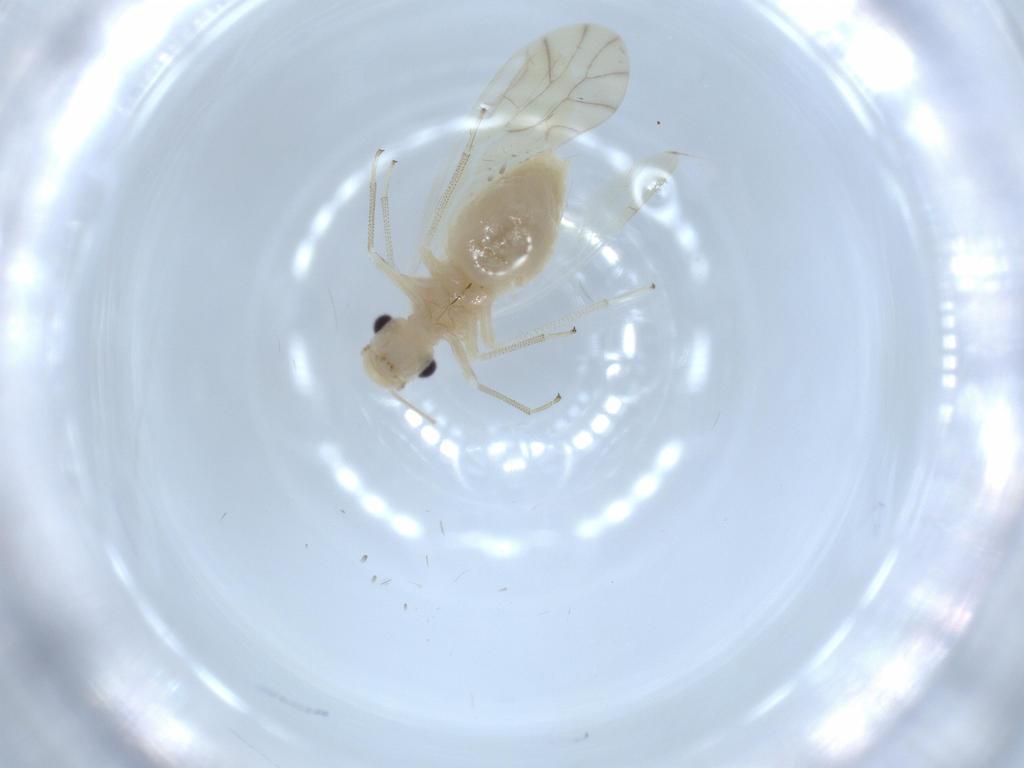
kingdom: Animalia
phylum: Arthropoda
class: Insecta
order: Psocodea
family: Caeciliusidae
